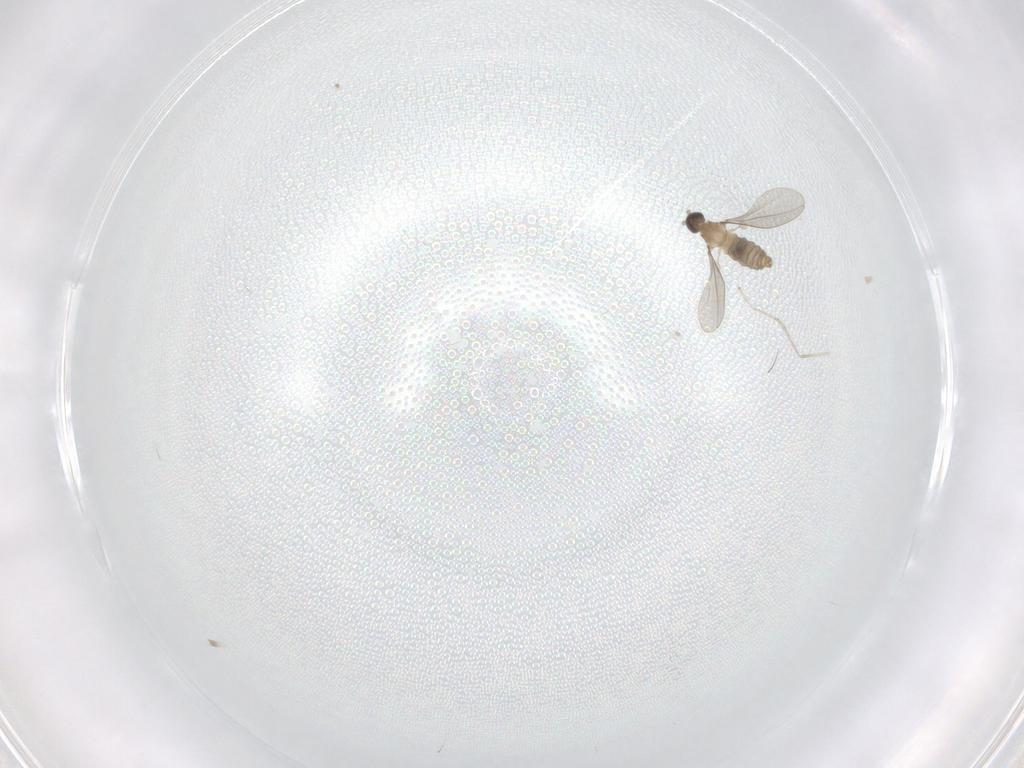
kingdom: Animalia
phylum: Arthropoda
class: Insecta
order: Diptera
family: Cecidomyiidae
